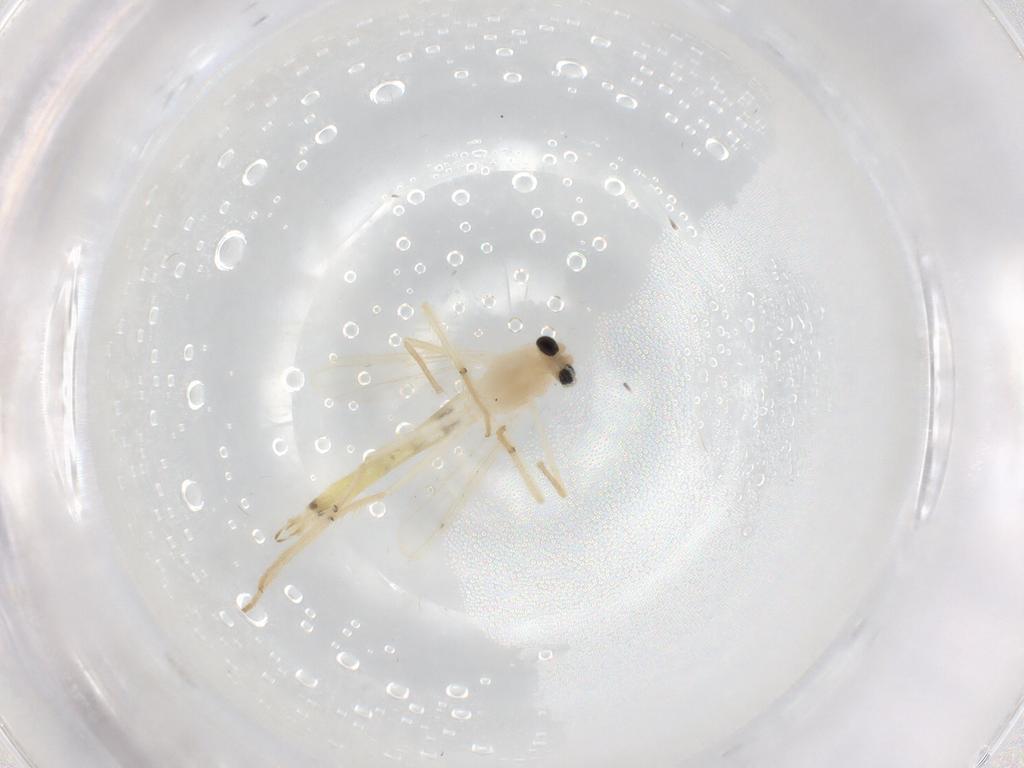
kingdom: Animalia
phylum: Arthropoda
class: Insecta
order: Diptera
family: Chironomidae
